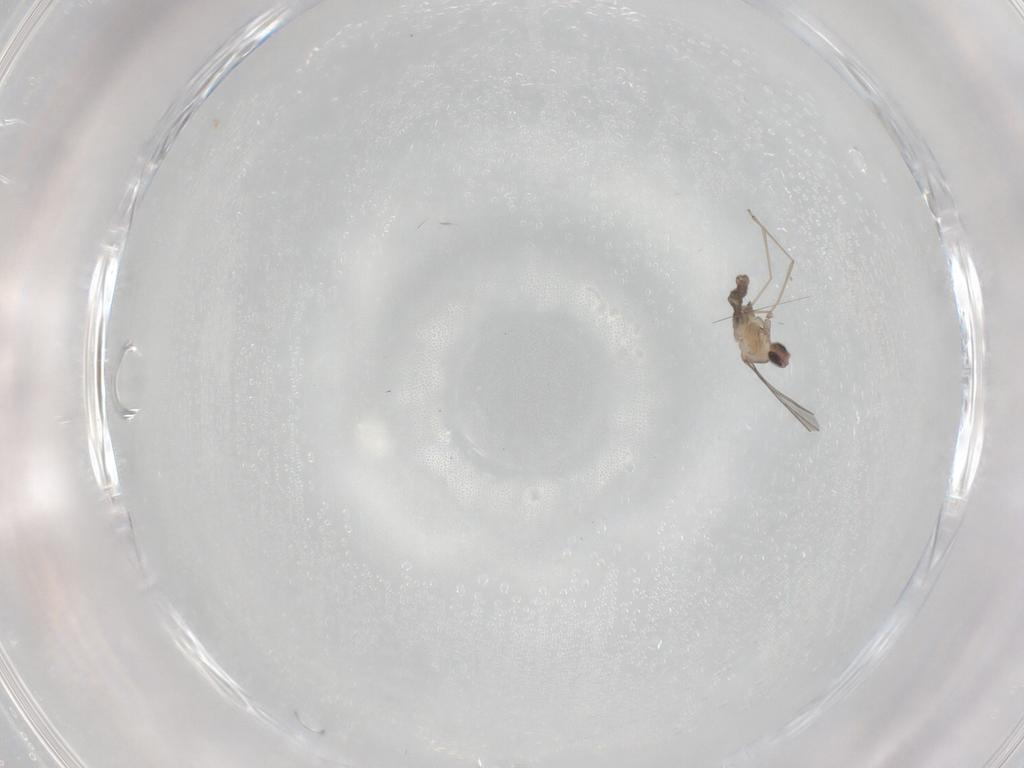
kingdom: Animalia
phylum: Arthropoda
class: Insecta
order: Diptera
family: Cecidomyiidae
